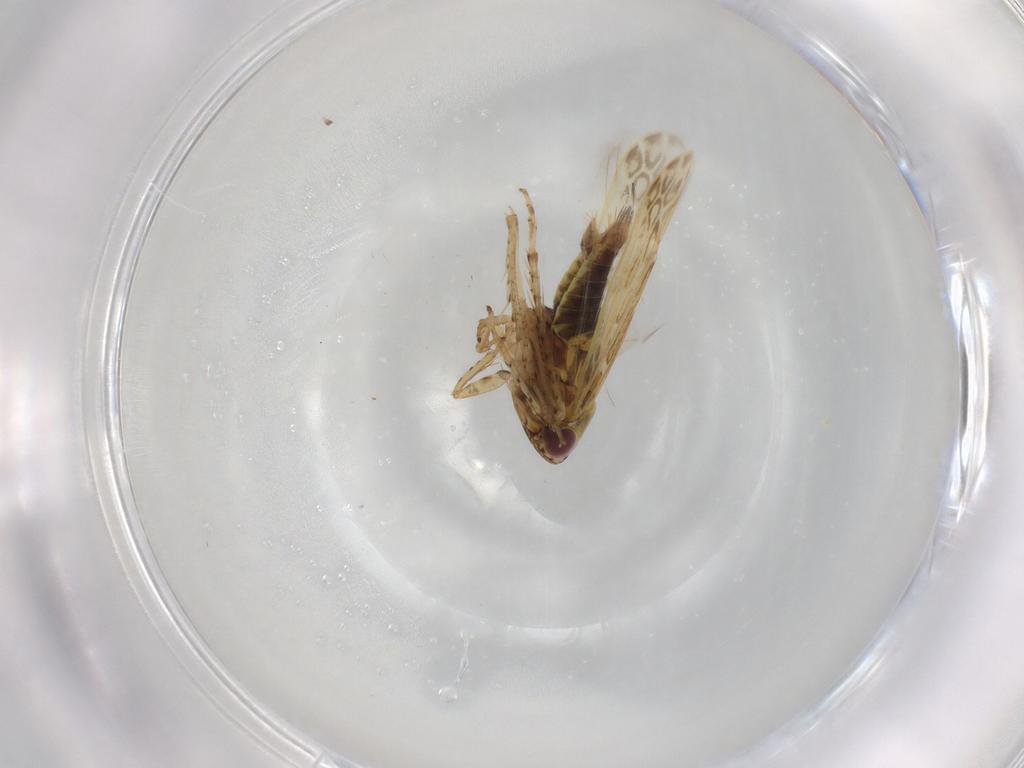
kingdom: Animalia
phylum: Arthropoda
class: Insecta
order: Hemiptera
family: Cicadellidae
